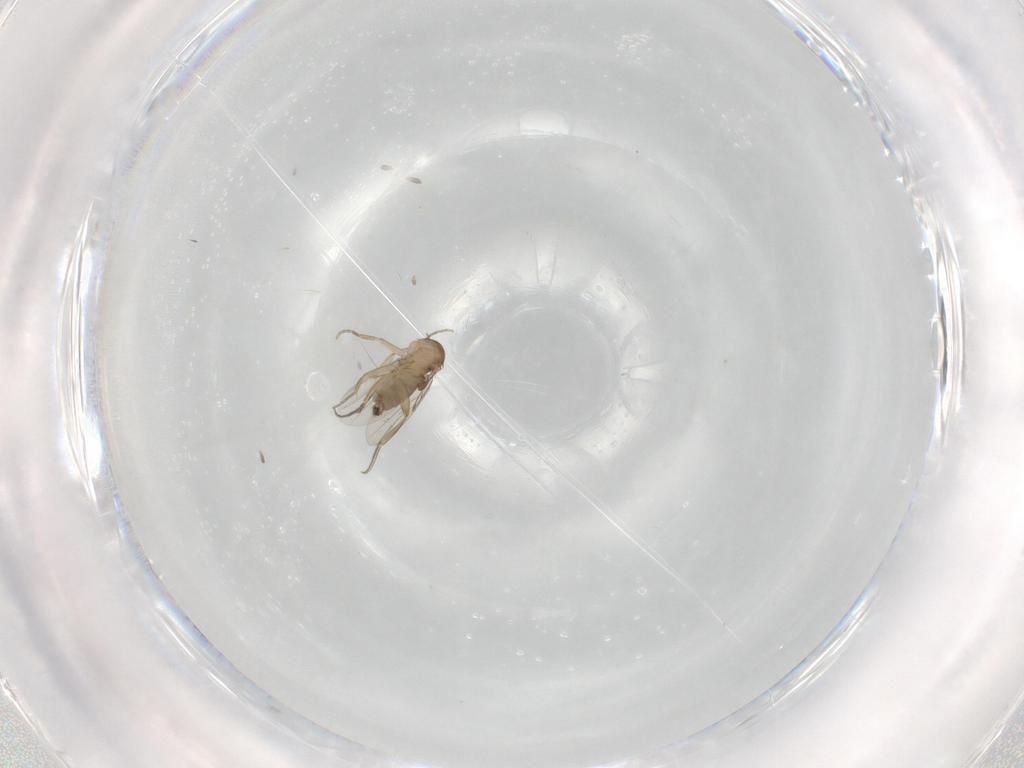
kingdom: Animalia
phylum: Arthropoda
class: Insecta
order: Diptera
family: Phoridae
